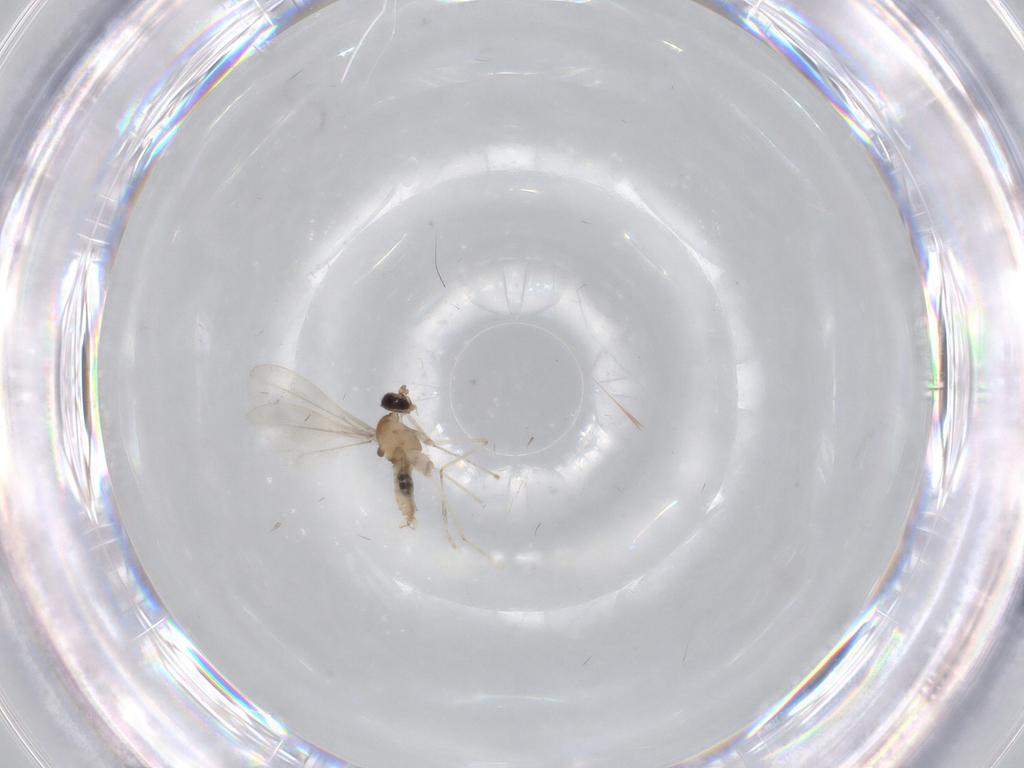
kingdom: Animalia
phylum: Arthropoda
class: Insecta
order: Diptera
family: Cecidomyiidae
